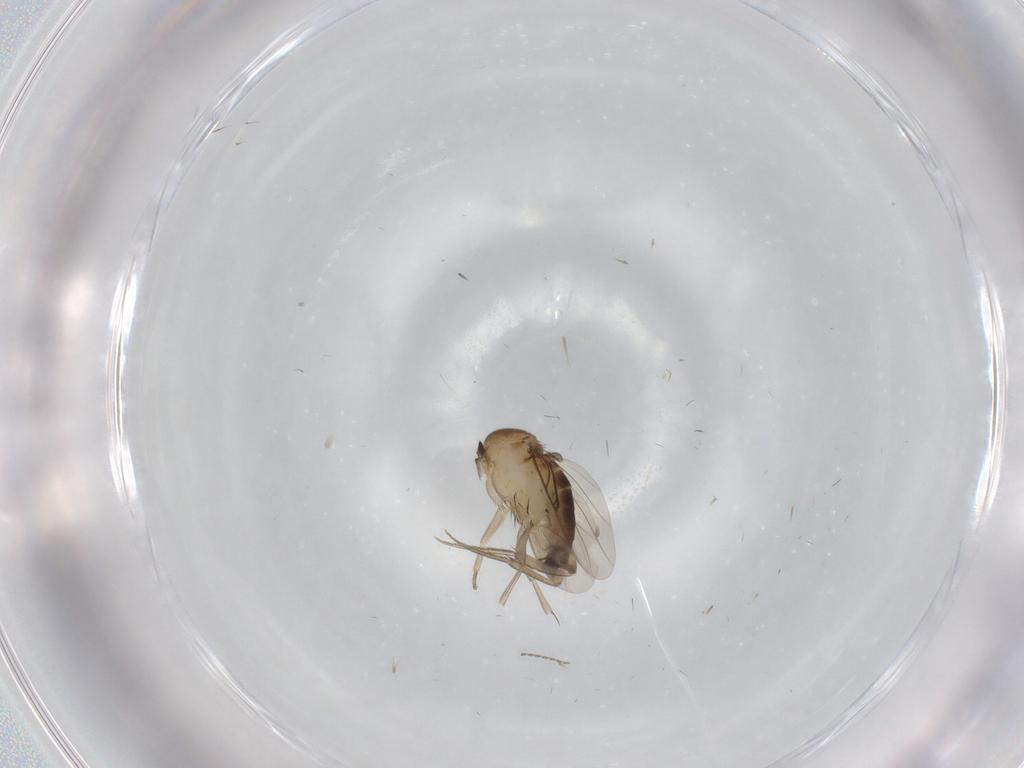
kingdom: Animalia
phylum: Arthropoda
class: Insecta
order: Diptera
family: Phoridae
